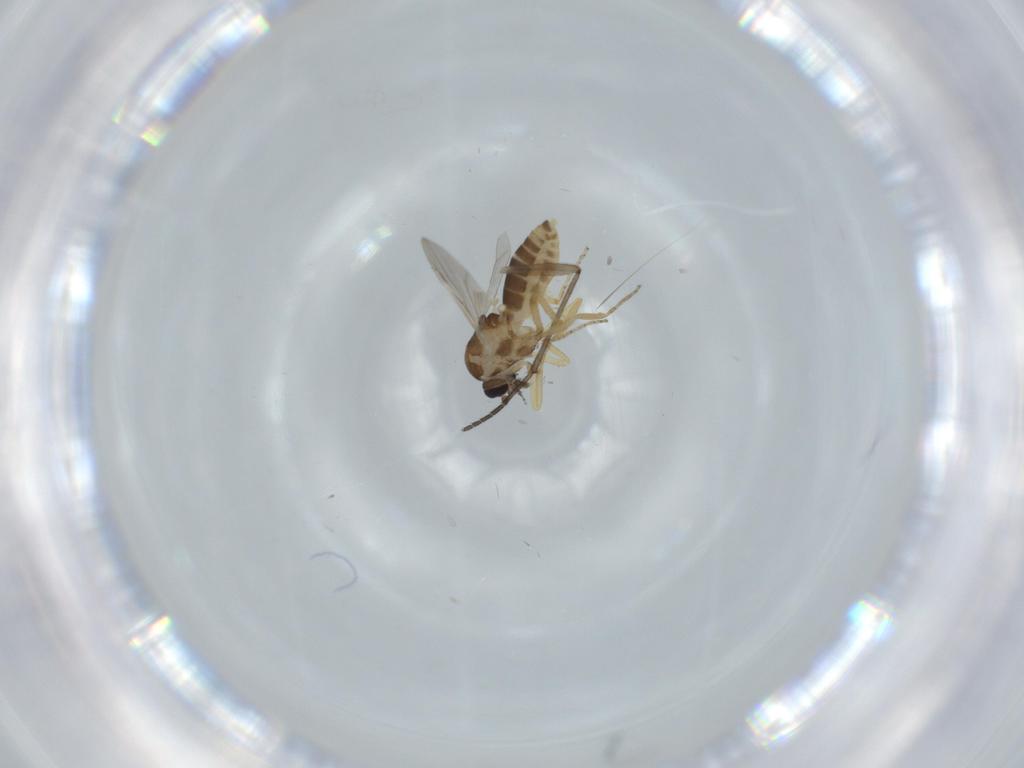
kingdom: Animalia
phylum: Arthropoda
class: Insecta
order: Diptera
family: Ceratopogonidae
